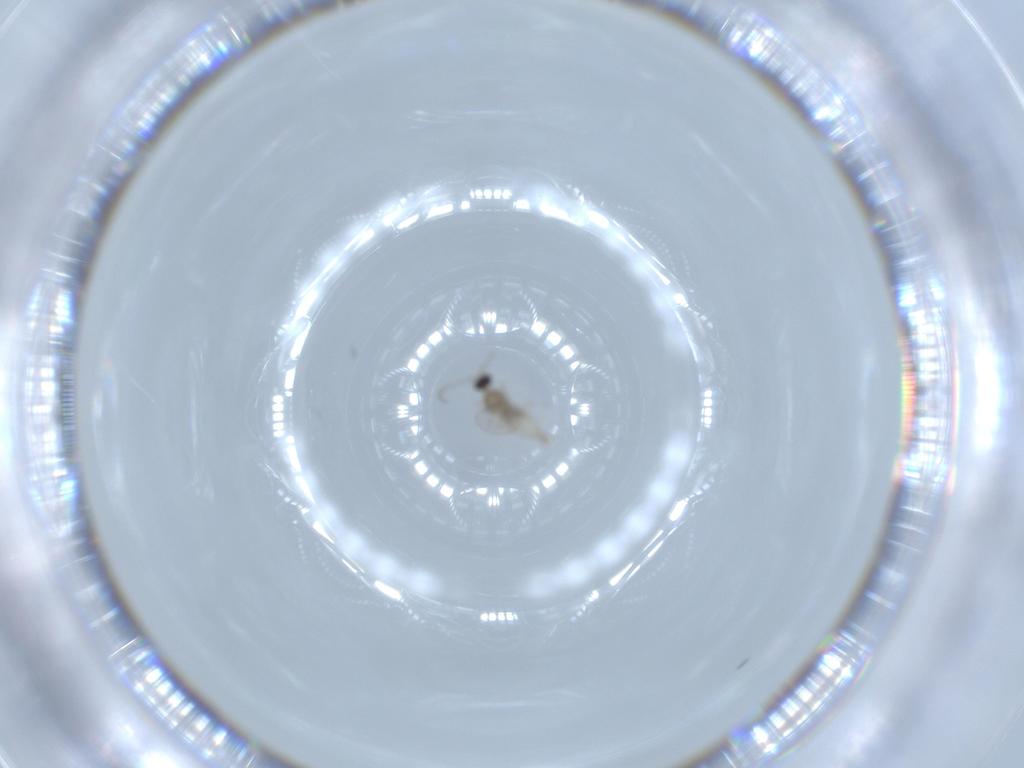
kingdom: Animalia
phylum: Arthropoda
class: Insecta
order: Diptera
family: Cecidomyiidae
